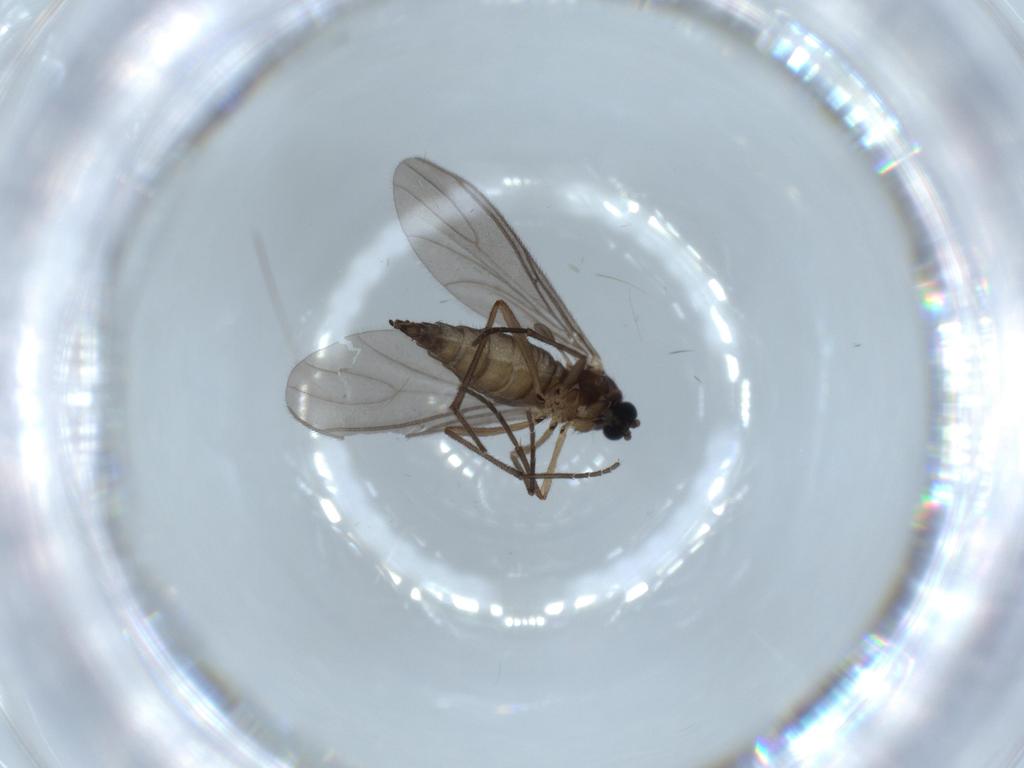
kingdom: Animalia
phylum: Arthropoda
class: Insecta
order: Diptera
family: Sciaridae
